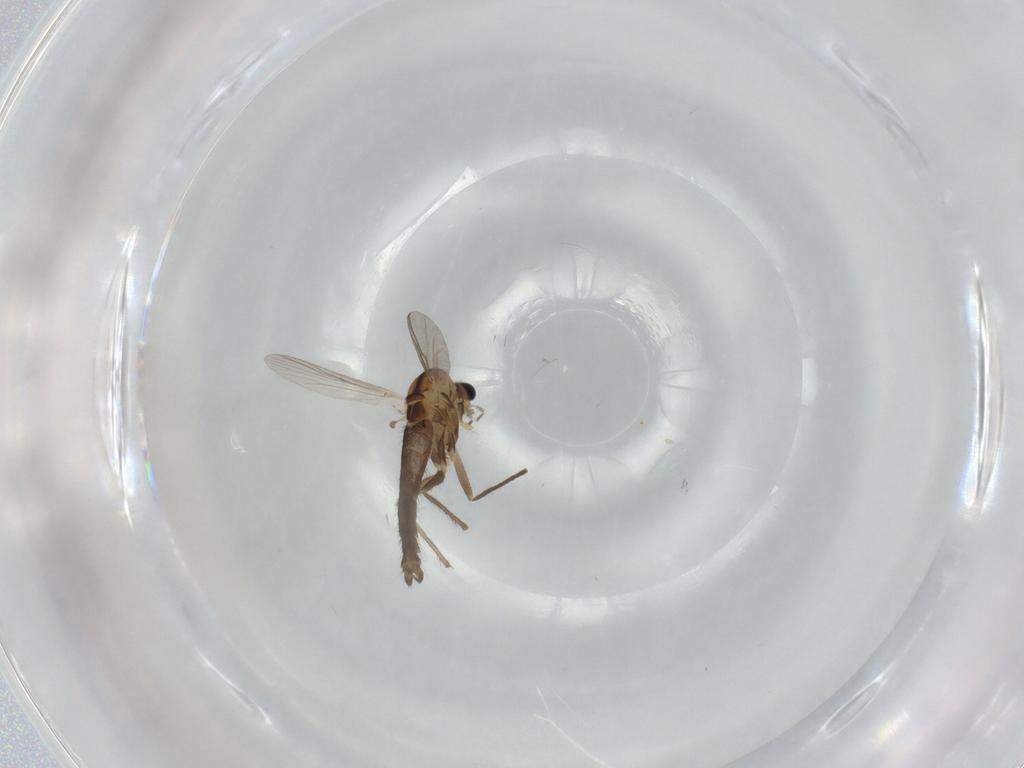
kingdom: Animalia
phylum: Arthropoda
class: Insecta
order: Diptera
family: Chironomidae
